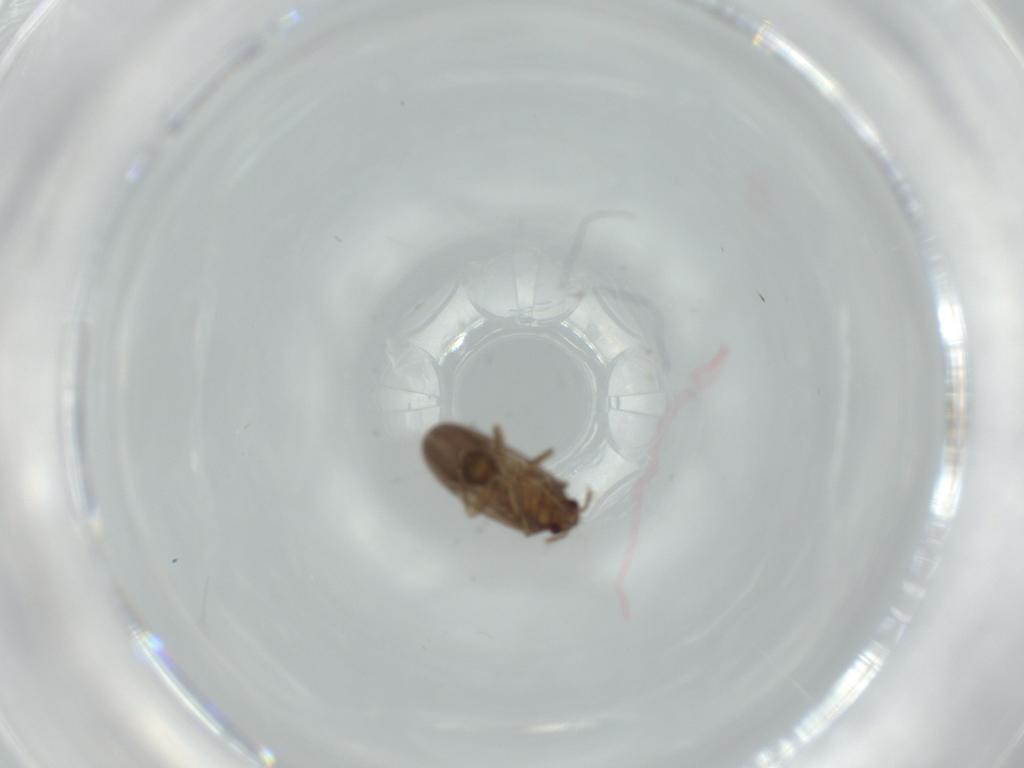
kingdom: Animalia
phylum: Arthropoda
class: Insecta
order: Hemiptera
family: Ceratocombidae
